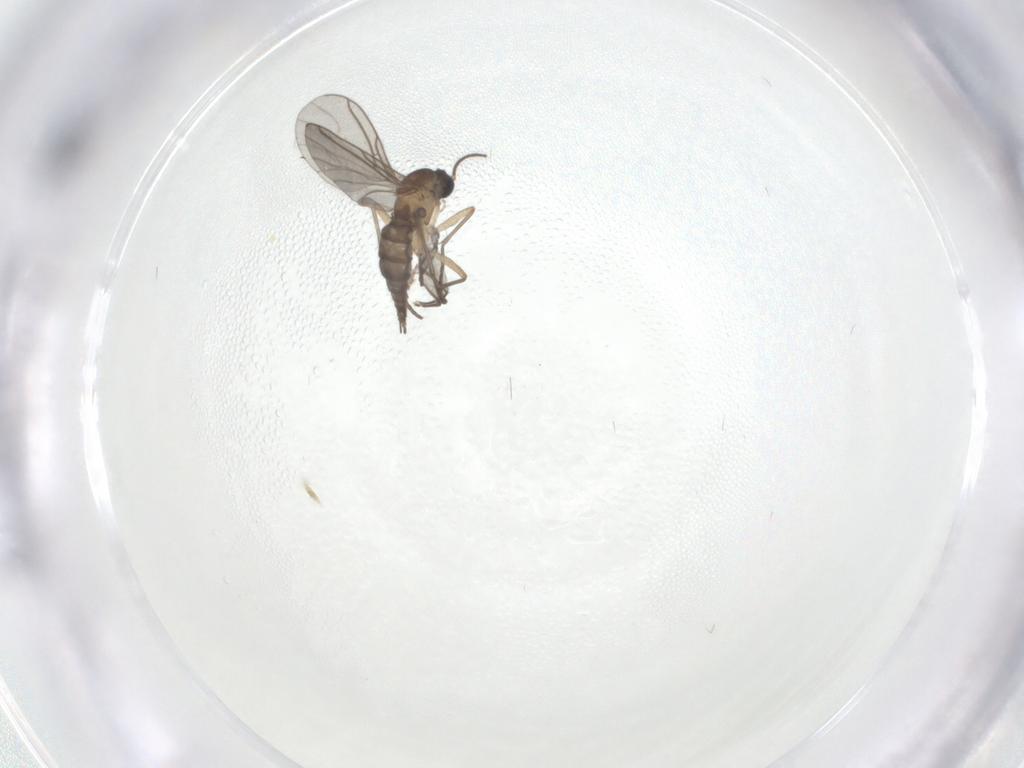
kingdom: Animalia
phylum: Arthropoda
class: Insecta
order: Diptera
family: Sciaridae
